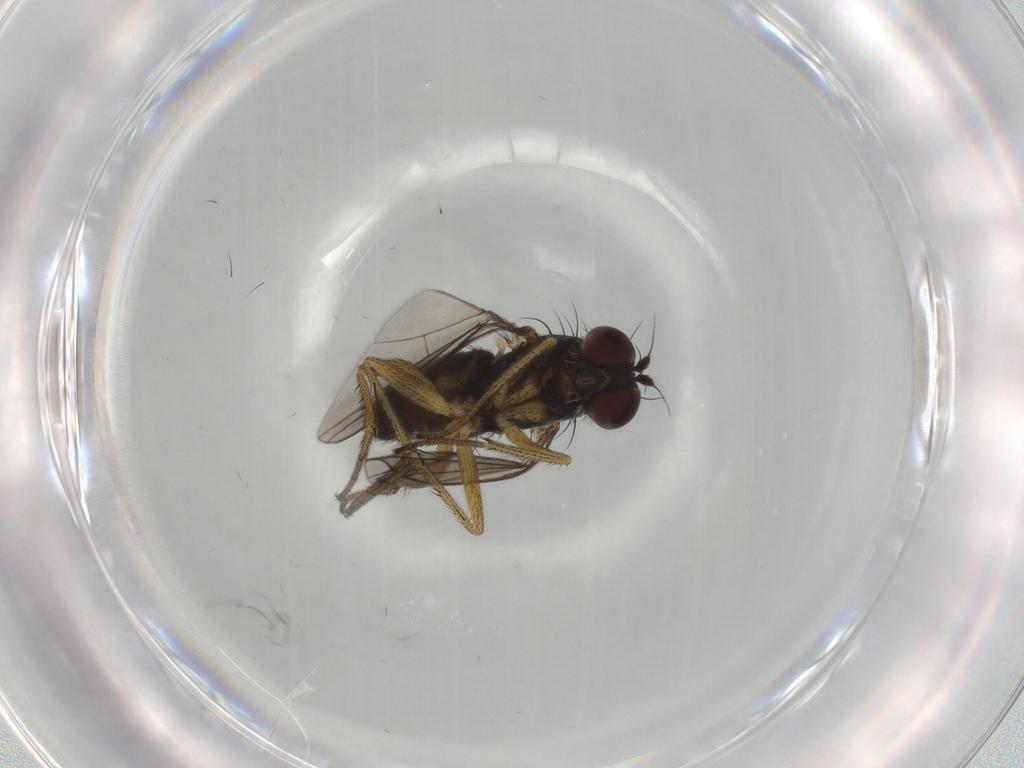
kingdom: Animalia
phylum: Arthropoda
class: Insecta
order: Diptera
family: Dolichopodidae
